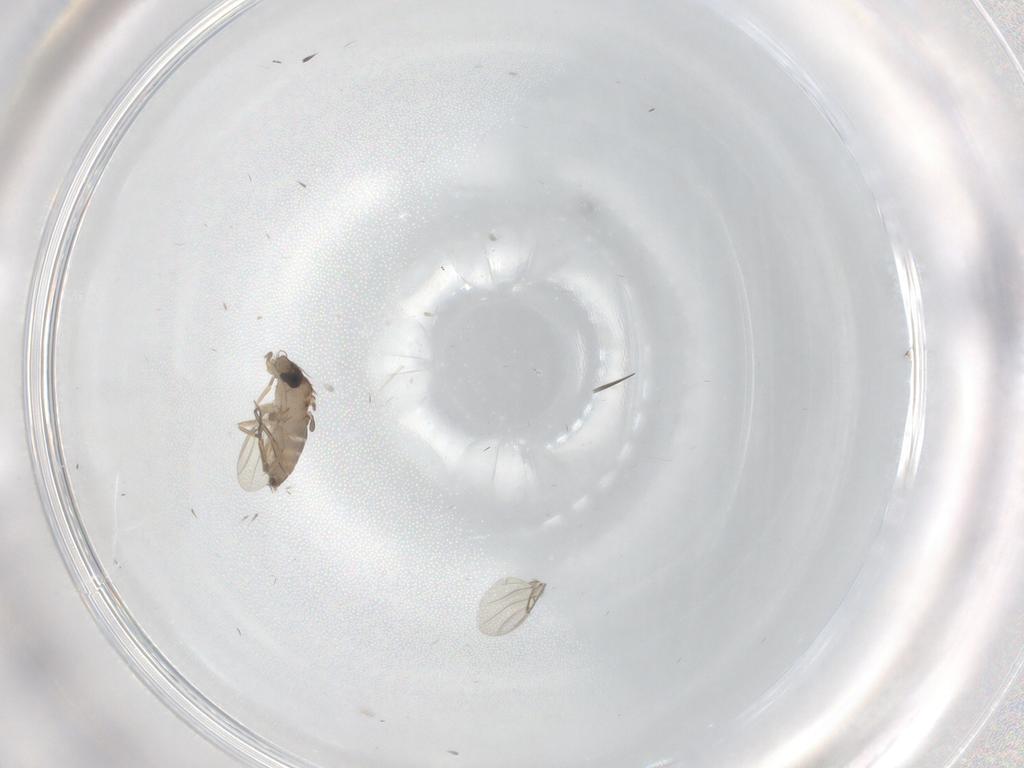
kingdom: Animalia
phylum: Arthropoda
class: Insecta
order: Diptera
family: Phoridae
